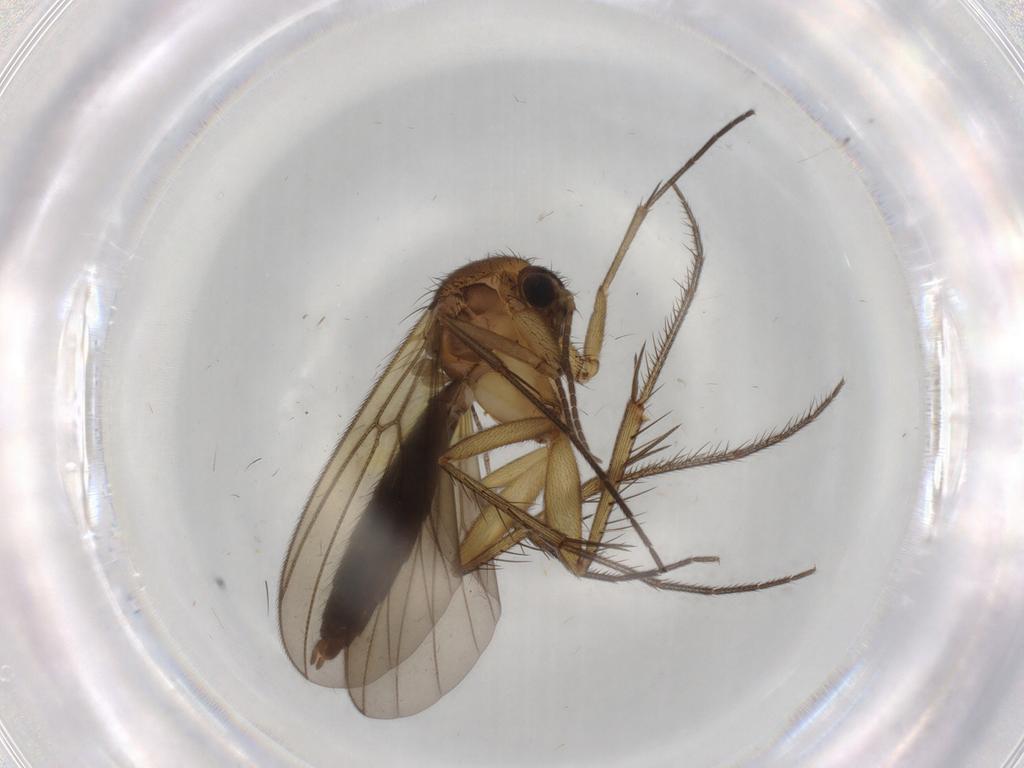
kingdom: Animalia
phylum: Arthropoda
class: Insecta
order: Diptera
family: Mycetophilidae
